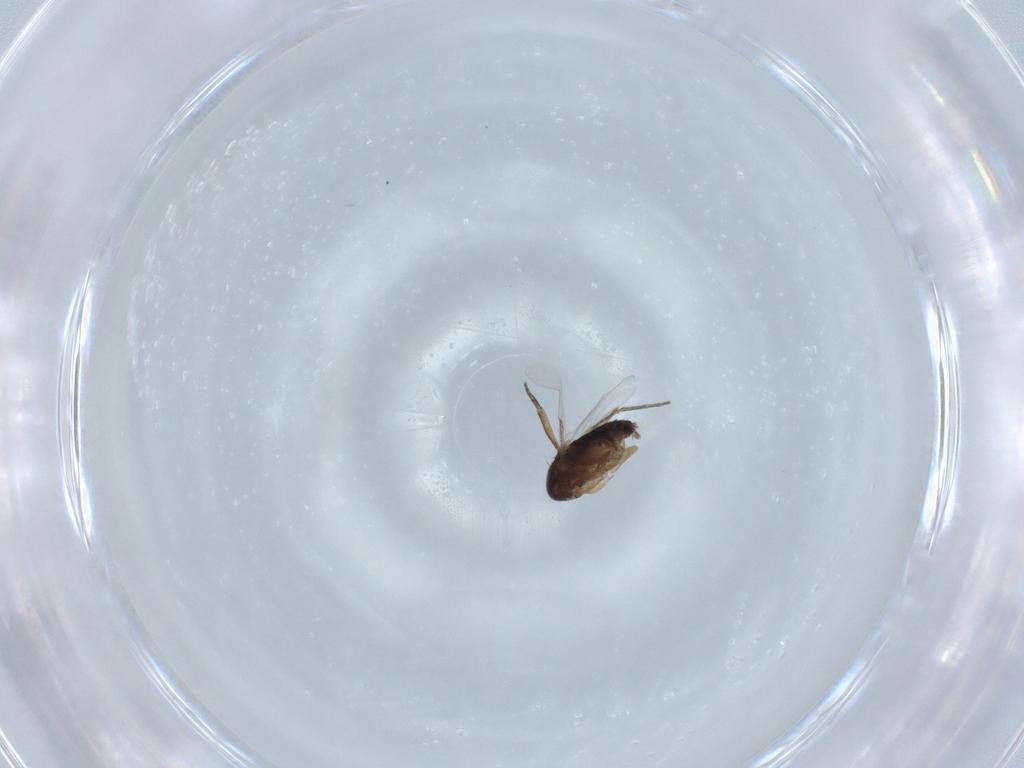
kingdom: Animalia
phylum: Arthropoda
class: Insecta
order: Diptera
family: Phoridae
